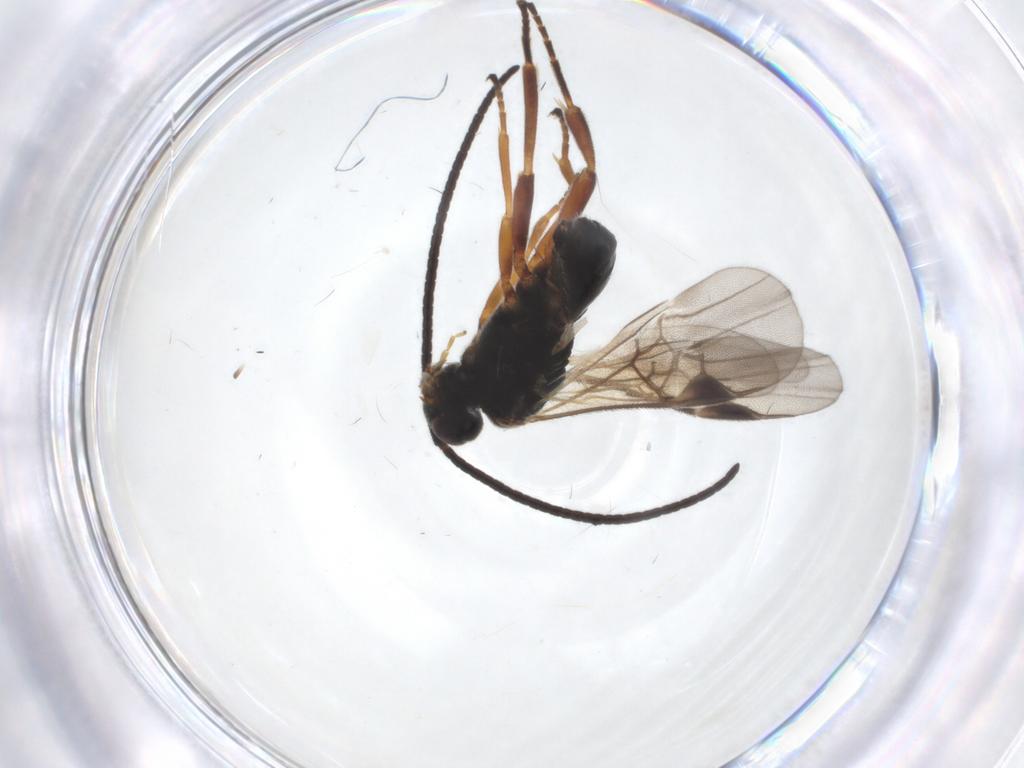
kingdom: Animalia
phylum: Arthropoda
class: Insecta
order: Hymenoptera
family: Braconidae
